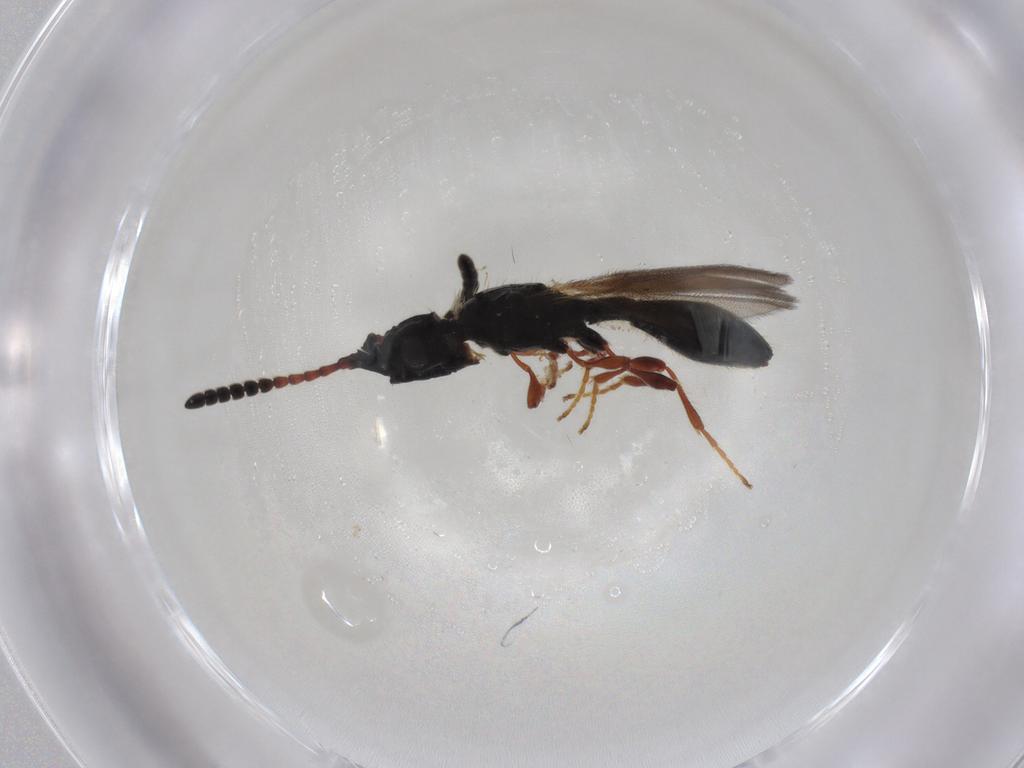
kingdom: Animalia
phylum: Arthropoda
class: Insecta
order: Hymenoptera
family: Diapriidae
